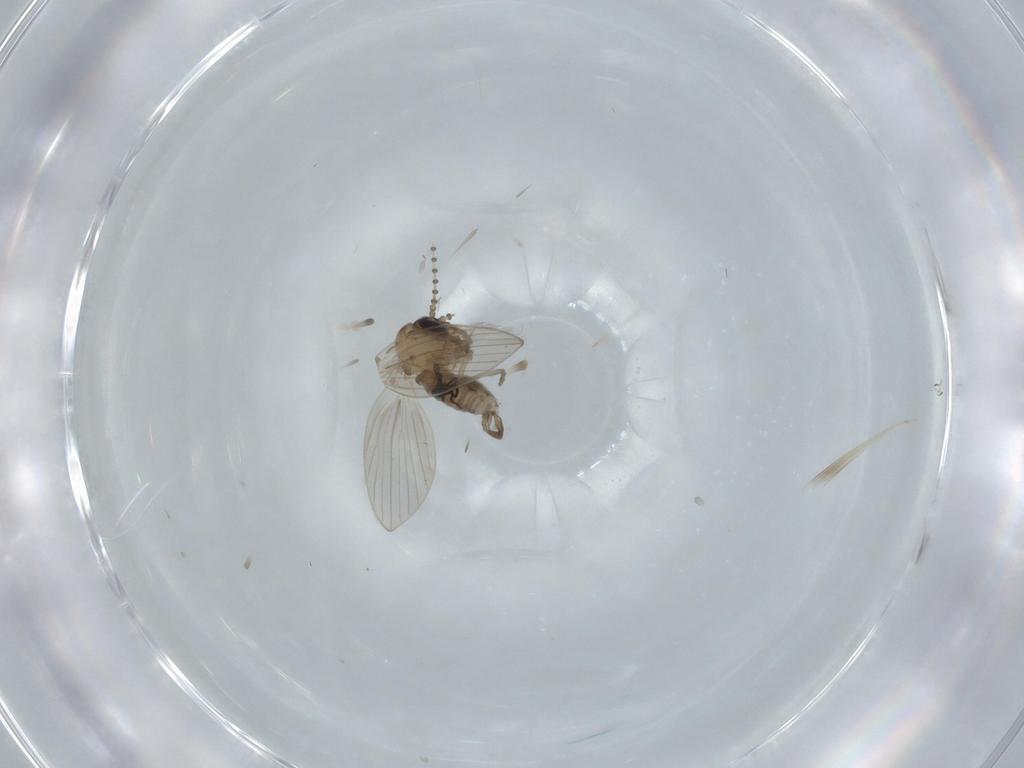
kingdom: Animalia
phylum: Arthropoda
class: Insecta
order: Diptera
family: Psychodidae
